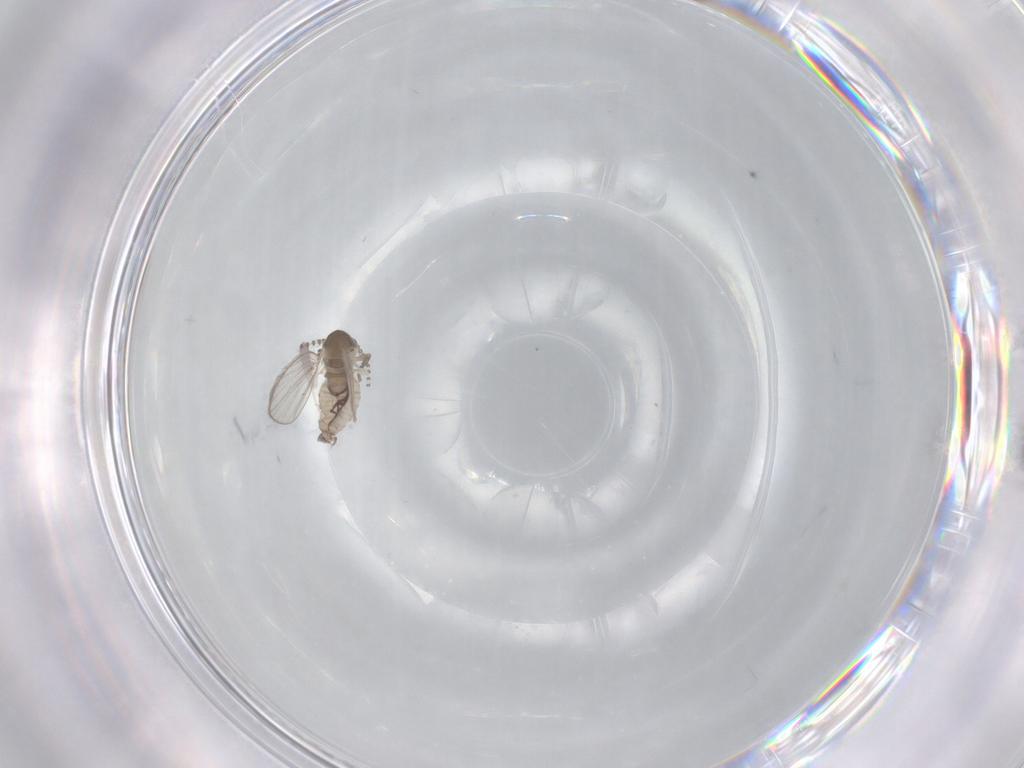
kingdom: Animalia
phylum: Arthropoda
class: Insecta
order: Diptera
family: Psychodidae
